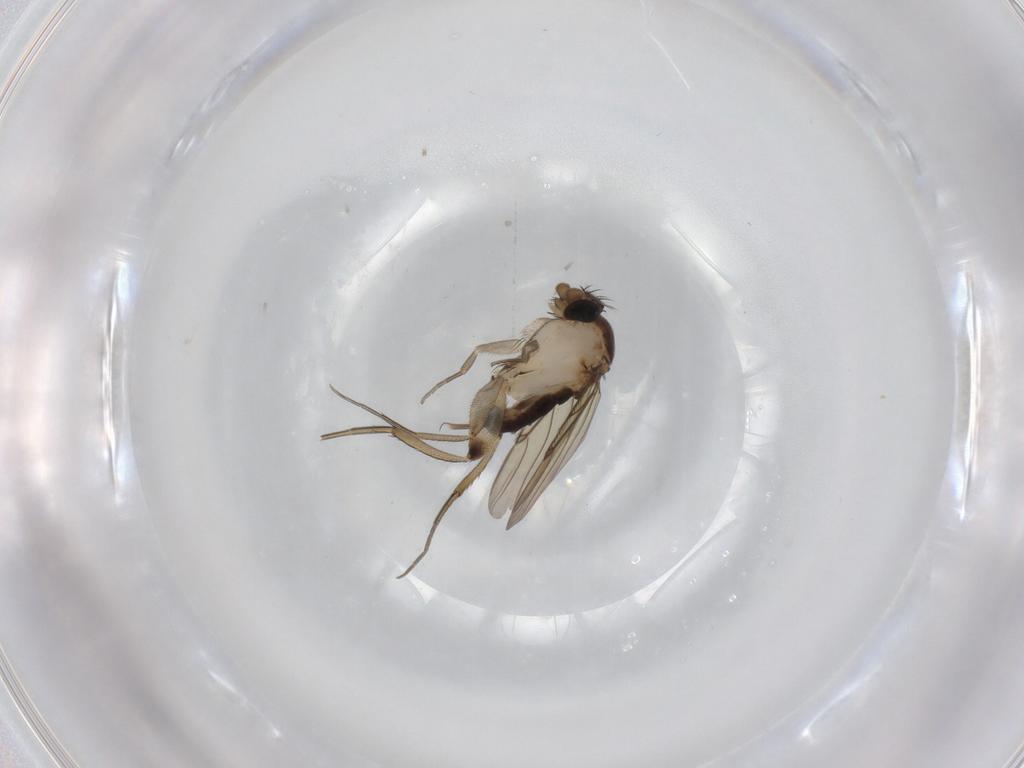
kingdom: Animalia
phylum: Arthropoda
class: Insecta
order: Diptera
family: Phoridae
